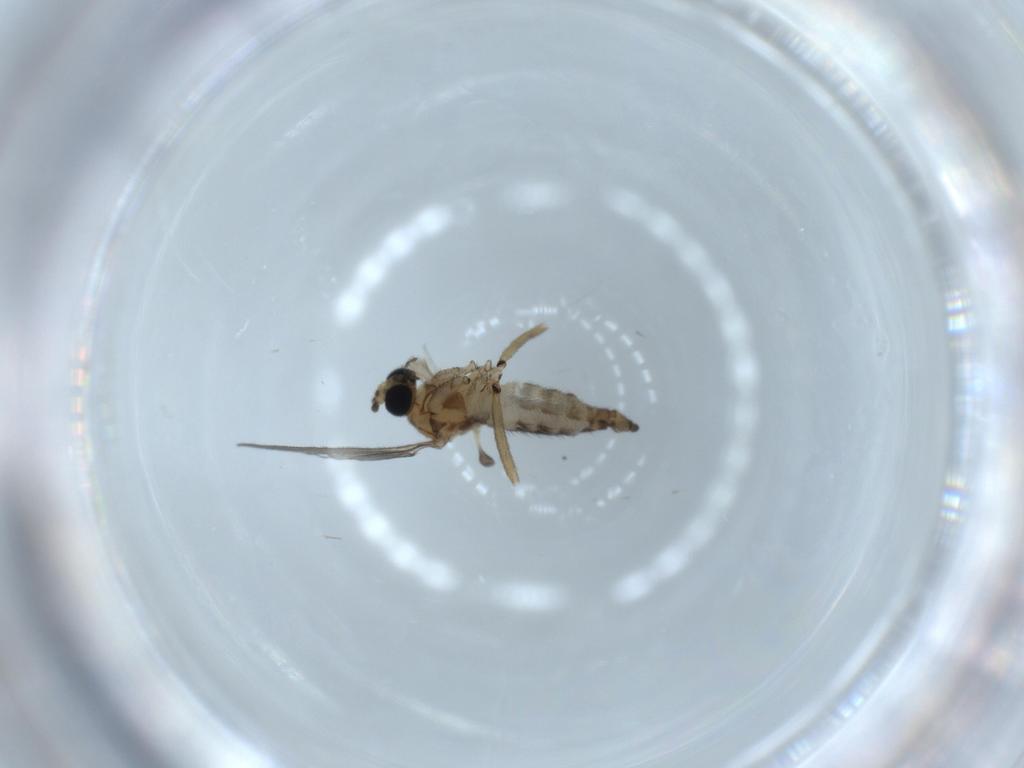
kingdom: Animalia
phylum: Arthropoda
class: Insecta
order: Diptera
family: Sciaridae
